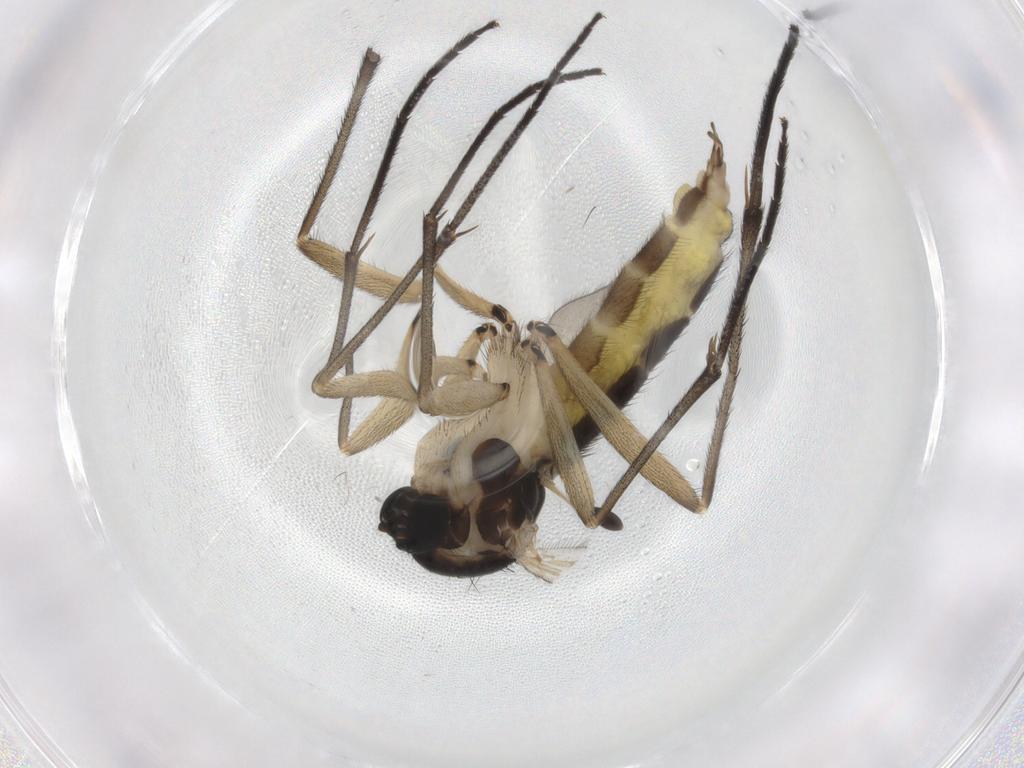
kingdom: Animalia
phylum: Arthropoda
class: Insecta
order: Diptera
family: Sciaridae
